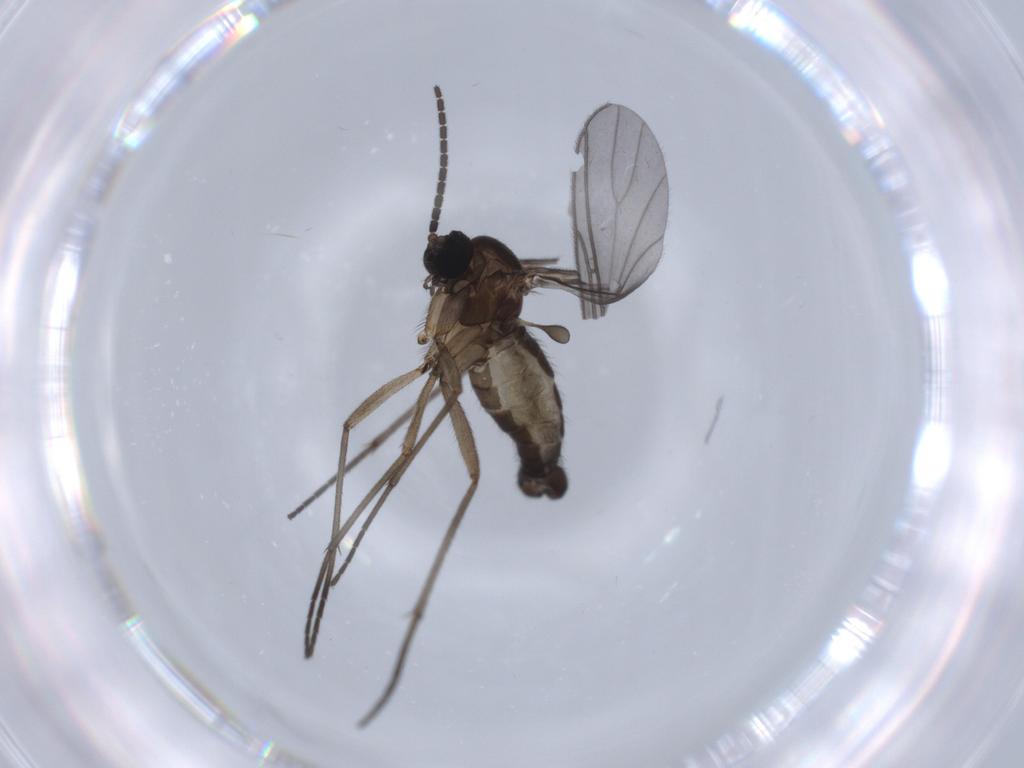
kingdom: Animalia
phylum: Arthropoda
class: Insecta
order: Diptera
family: Sciaridae
